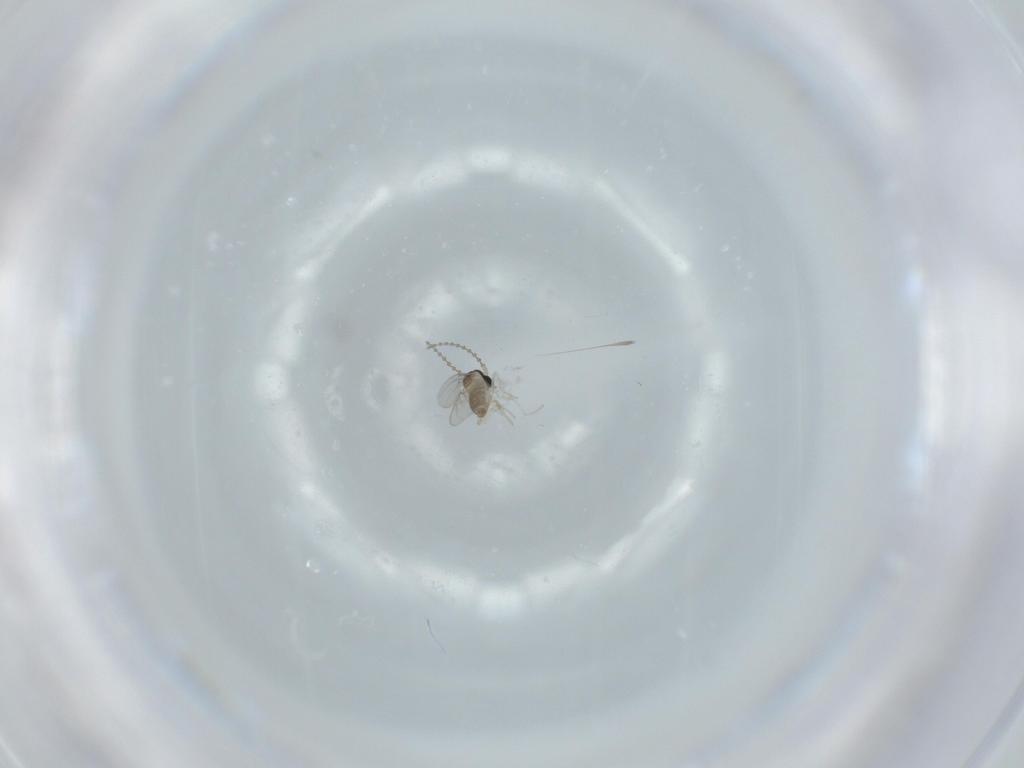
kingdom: Animalia
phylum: Arthropoda
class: Insecta
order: Diptera
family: Cecidomyiidae
